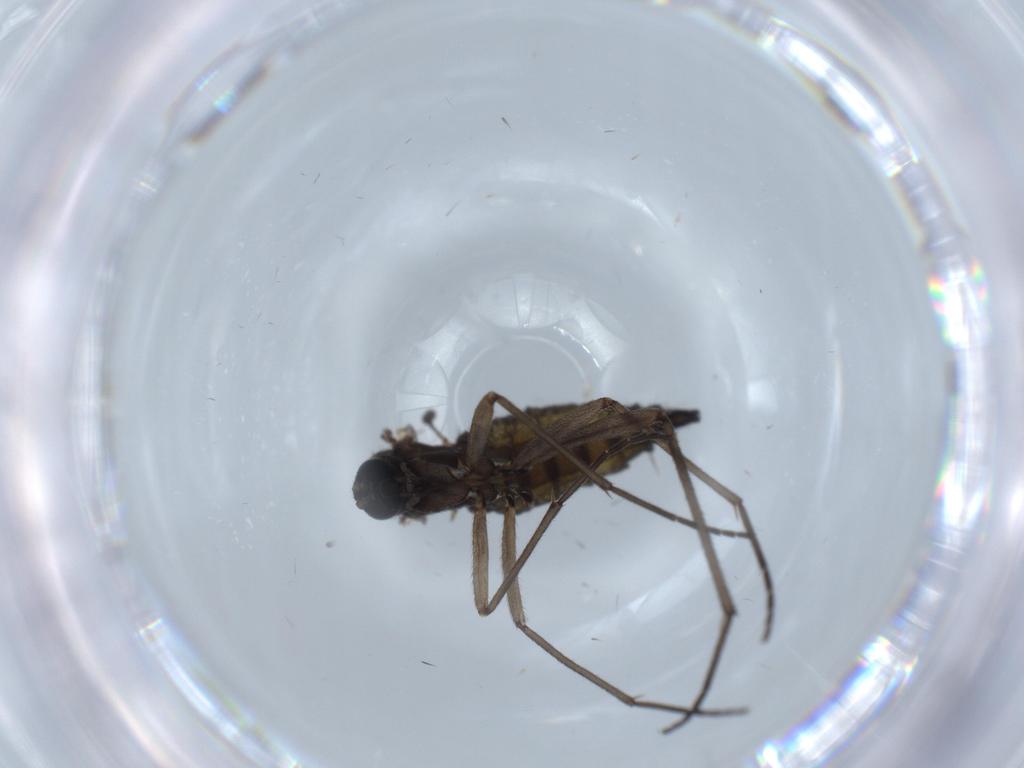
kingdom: Animalia
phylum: Arthropoda
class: Insecta
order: Diptera
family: Sciaridae
